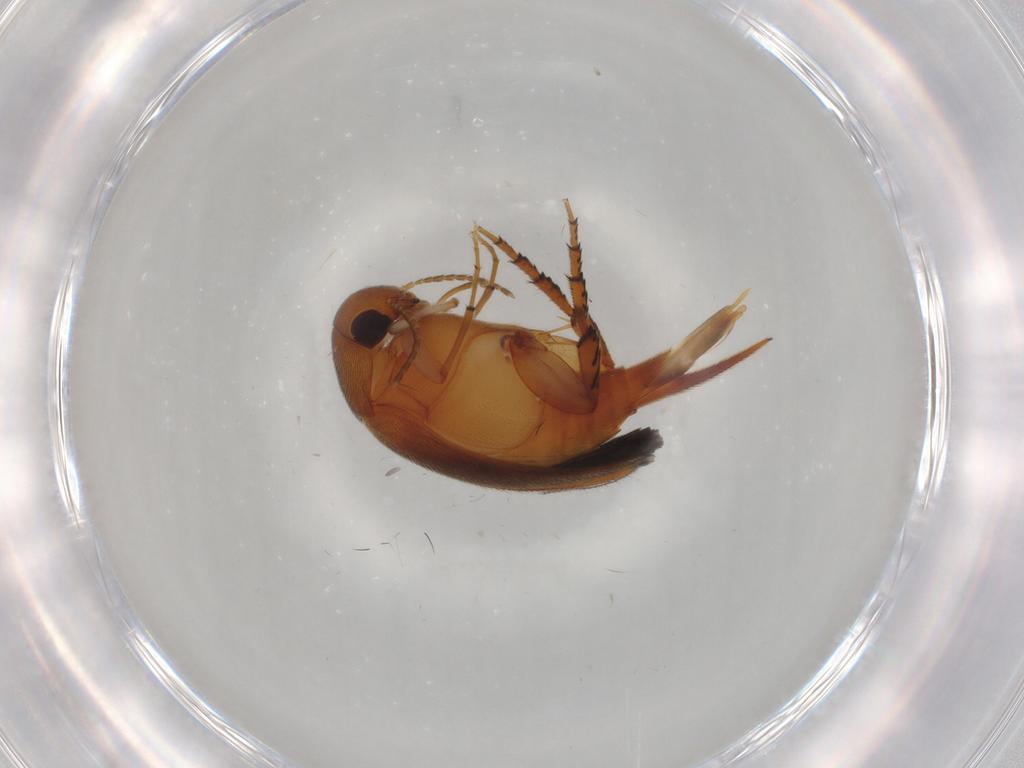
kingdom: Animalia
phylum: Arthropoda
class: Insecta
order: Coleoptera
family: Mordellidae
